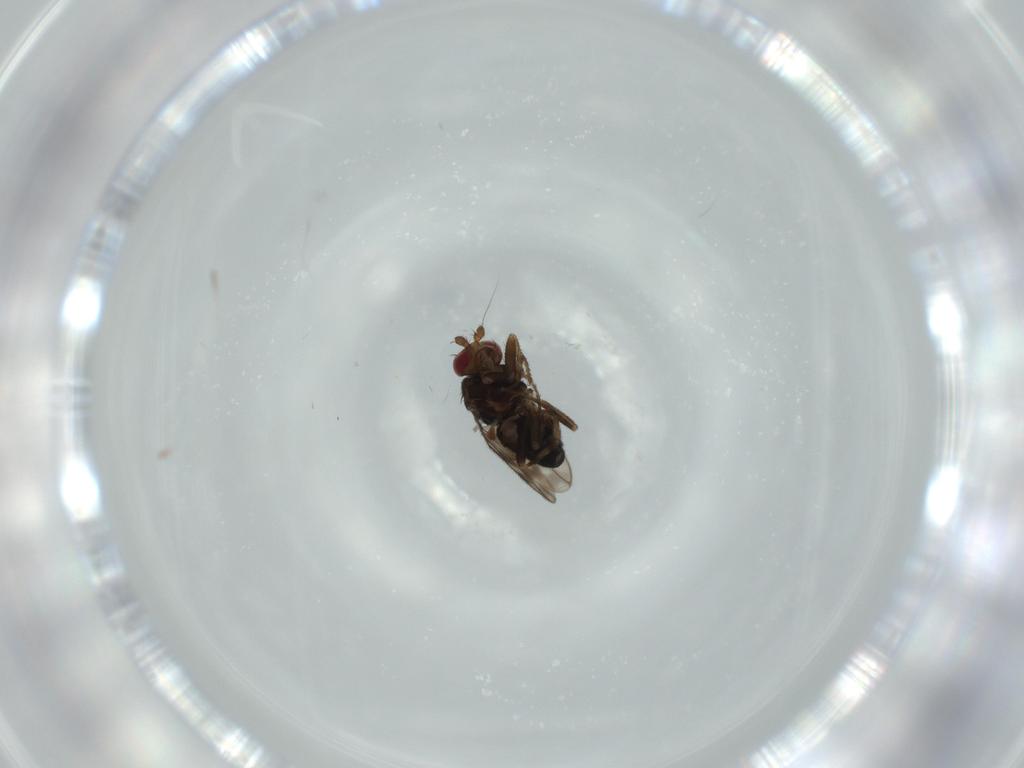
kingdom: Animalia
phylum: Arthropoda
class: Insecta
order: Diptera
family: Sphaeroceridae
